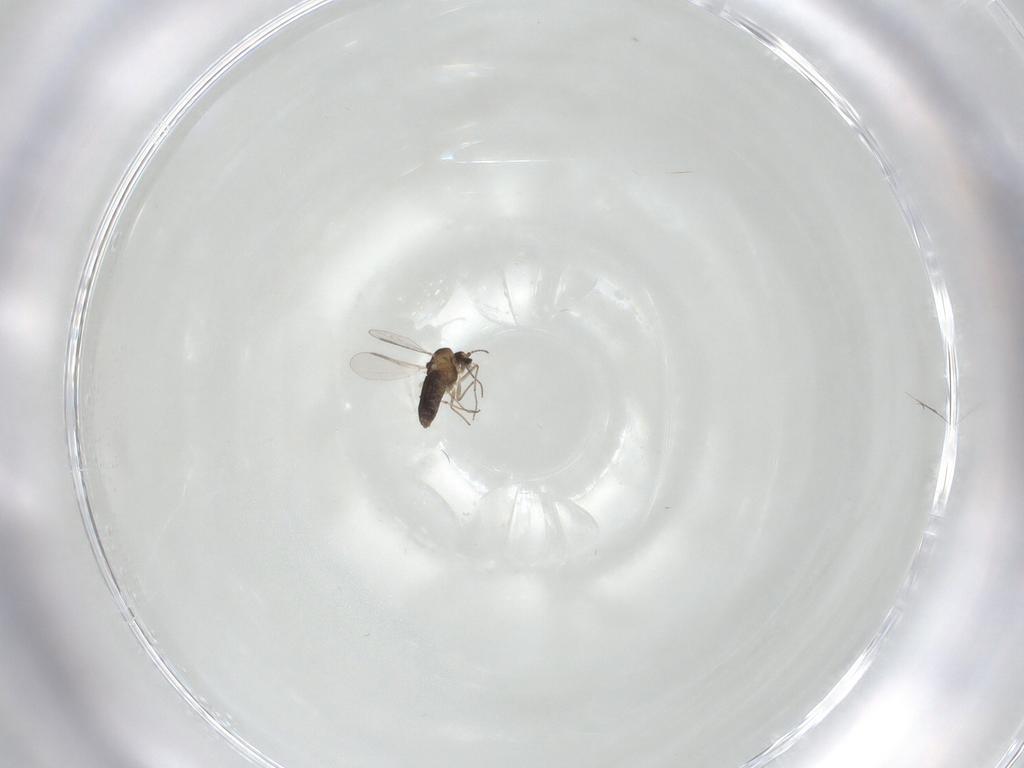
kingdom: Animalia
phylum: Arthropoda
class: Insecta
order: Diptera
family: Chironomidae
